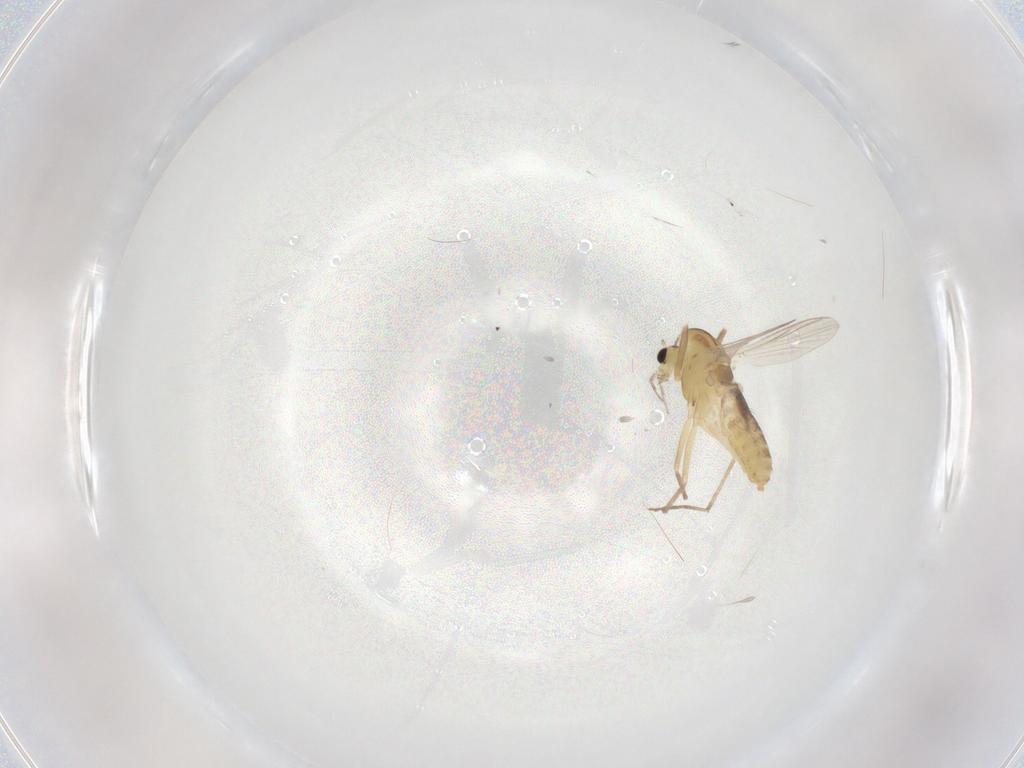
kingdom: Animalia
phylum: Arthropoda
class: Insecta
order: Diptera
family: Chironomidae
